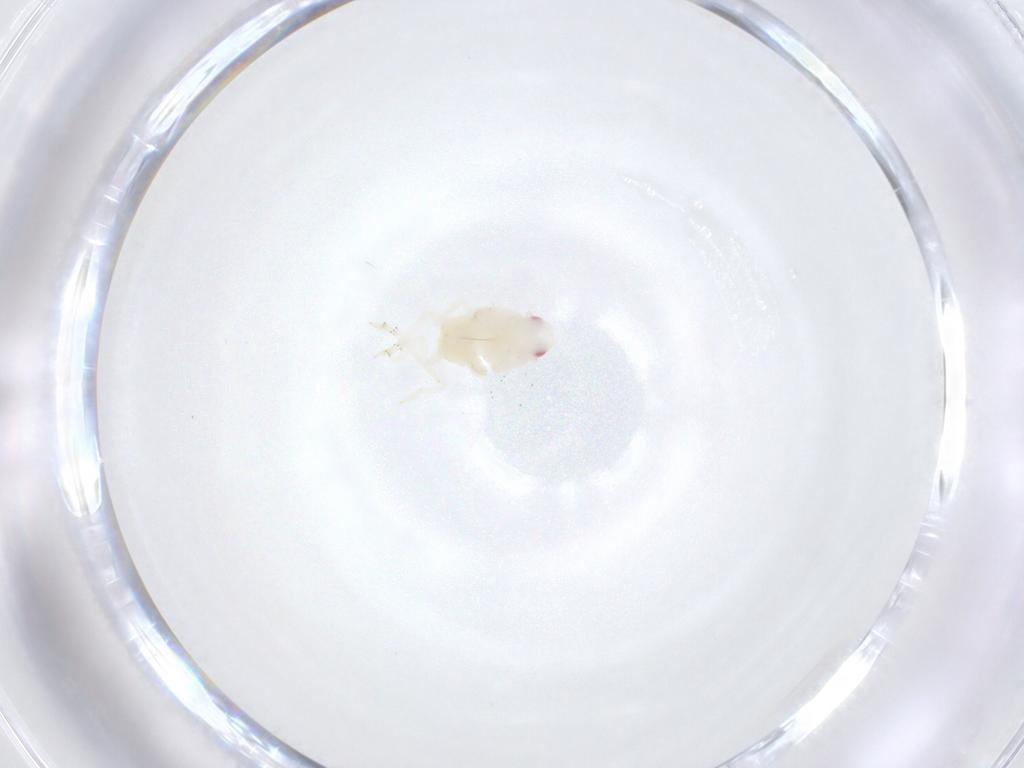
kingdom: Animalia
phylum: Arthropoda
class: Insecta
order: Hemiptera
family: Flatidae
